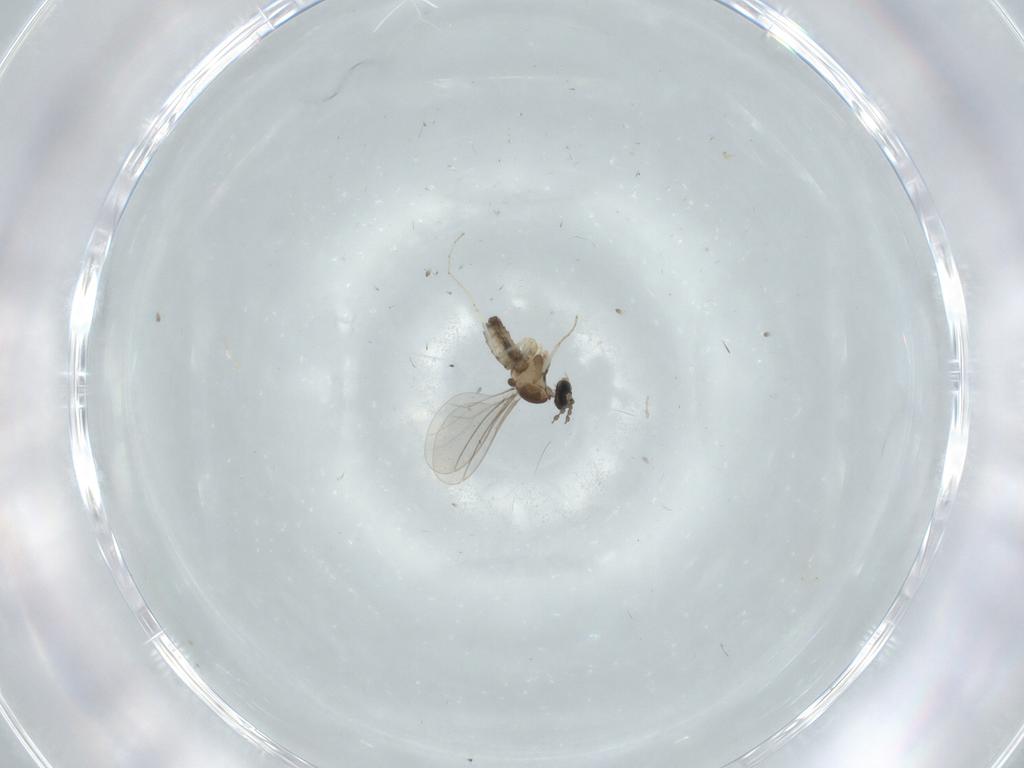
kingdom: Animalia
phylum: Arthropoda
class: Insecta
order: Diptera
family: Cecidomyiidae
